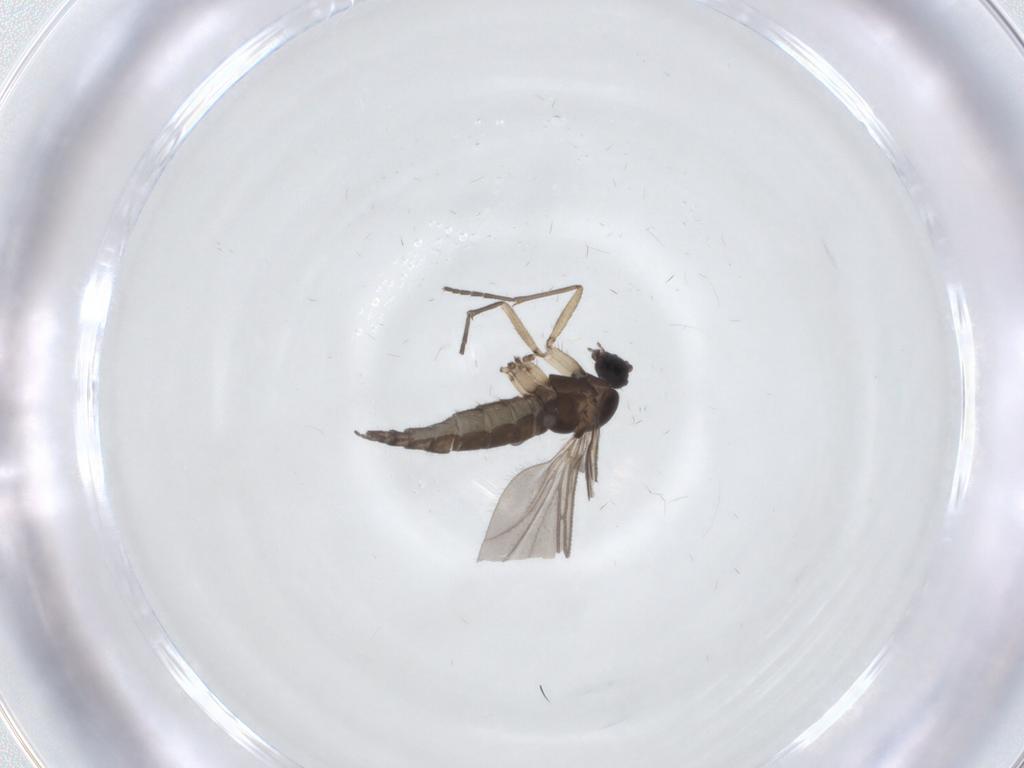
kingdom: Animalia
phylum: Arthropoda
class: Insecta
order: Diptera
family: Sciaridae
